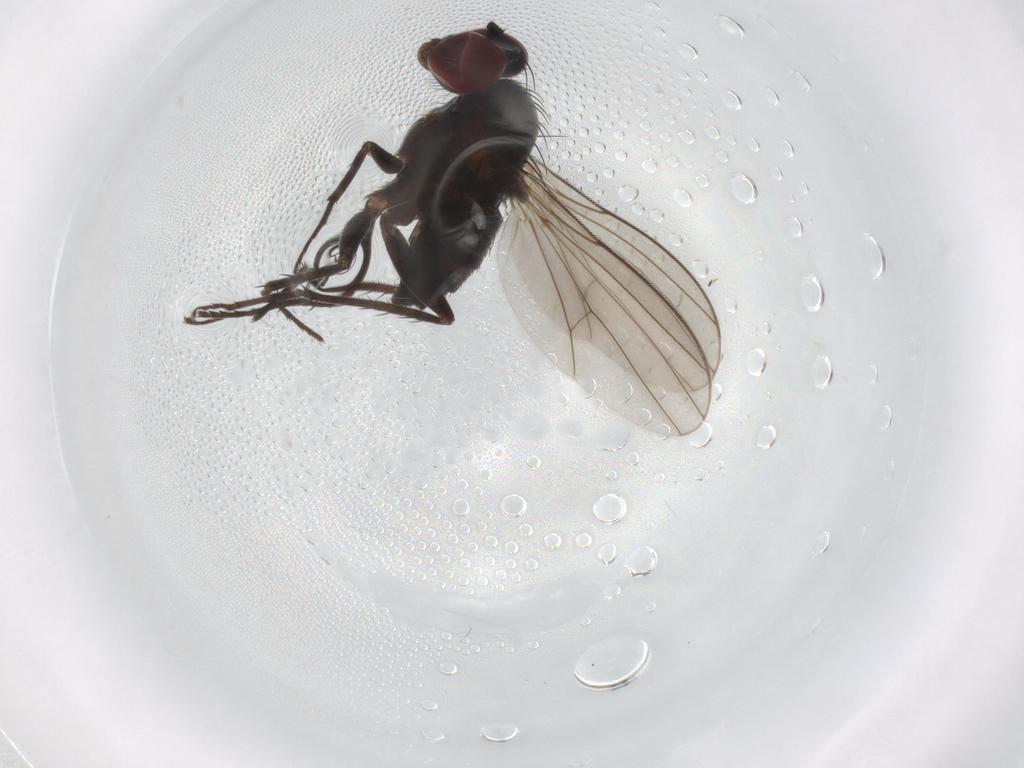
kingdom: Animalia
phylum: Arthropoda
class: Insecta
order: Diptera
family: Dolichopodidae
